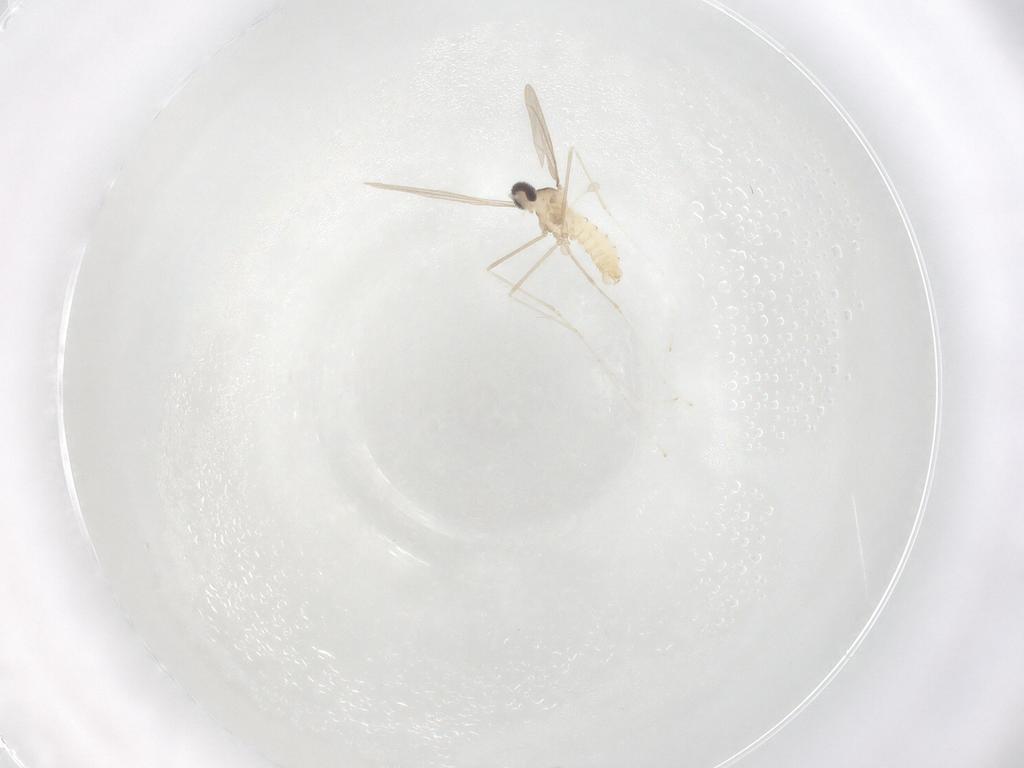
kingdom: Animalia
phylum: Arthropoda
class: Insecta
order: Diptera
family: Cecidomyiidae
